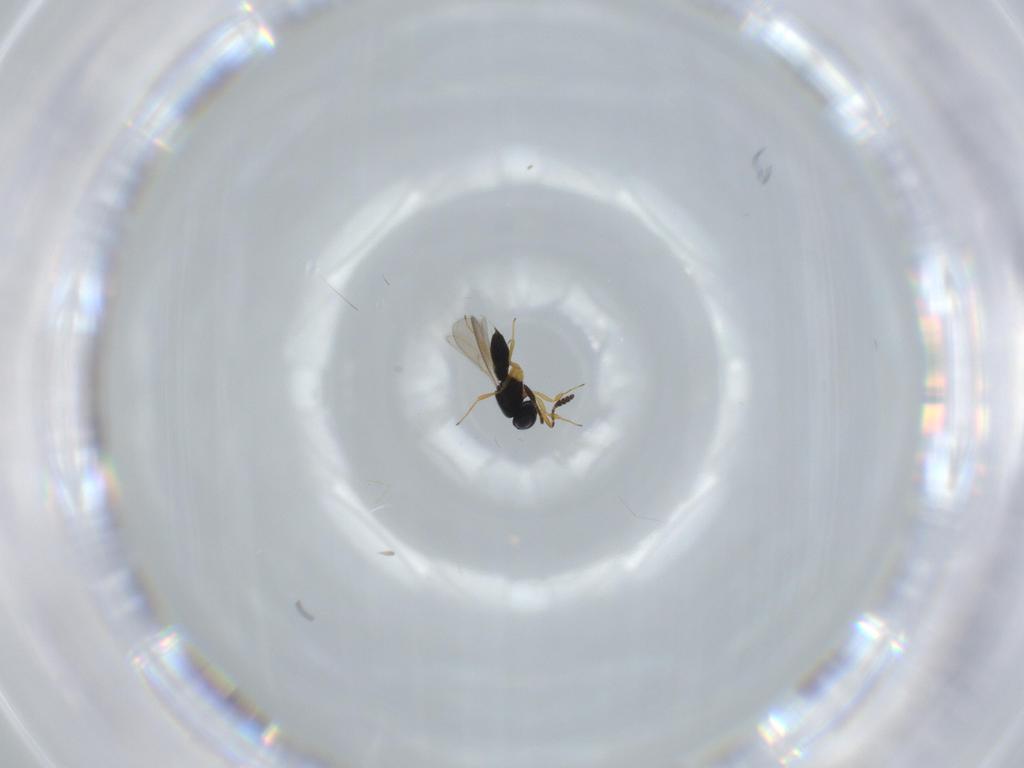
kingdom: Animalia
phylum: Arthropoda
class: Insecta
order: Hymenoptera
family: Scelionidae
